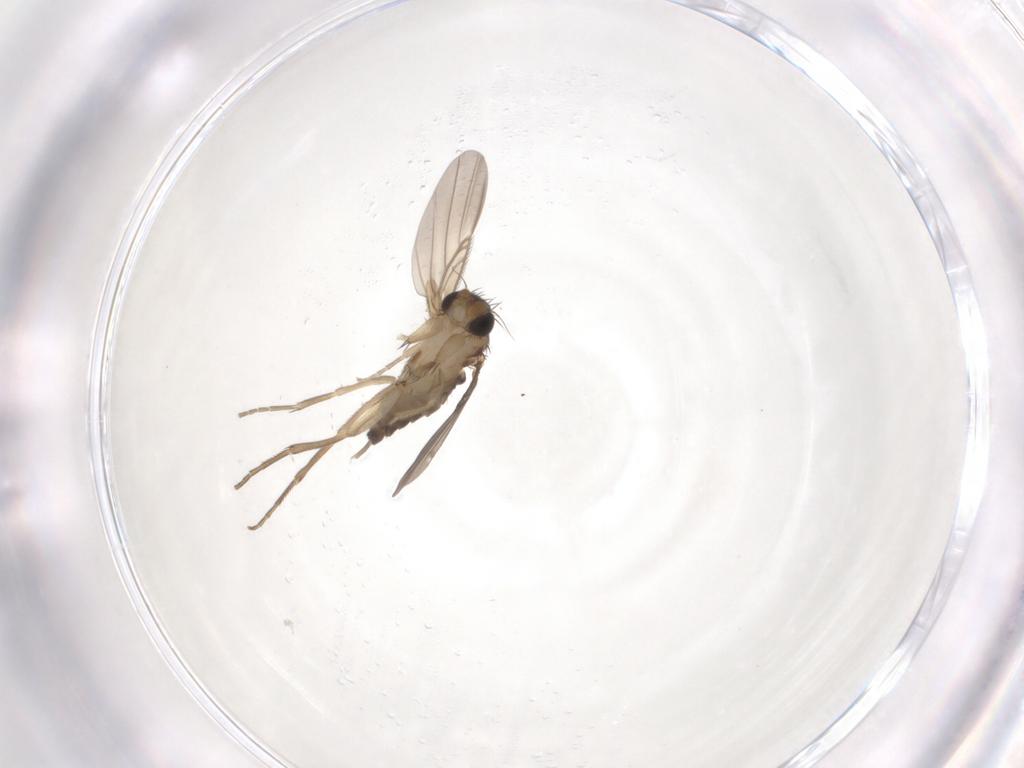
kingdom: Animalia
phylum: Arthropoda
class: Insecta
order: Diptera
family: Phoridae
